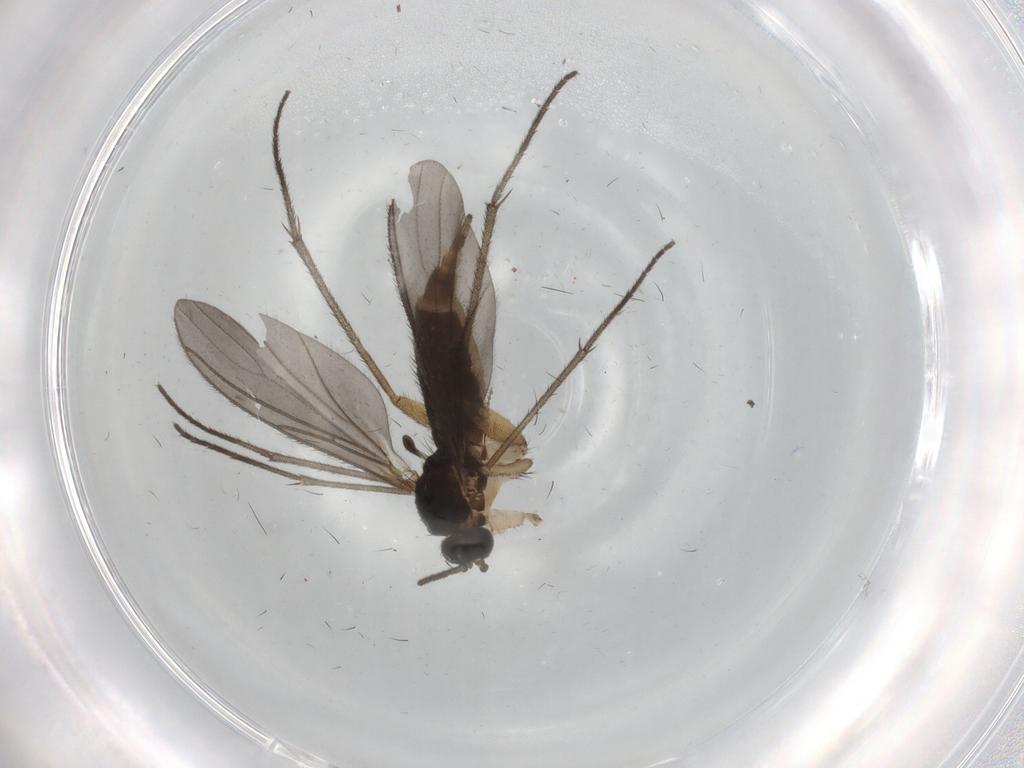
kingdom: Animalia
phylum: Arthropoda
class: Insecta
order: Diptera
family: Sciaridae
